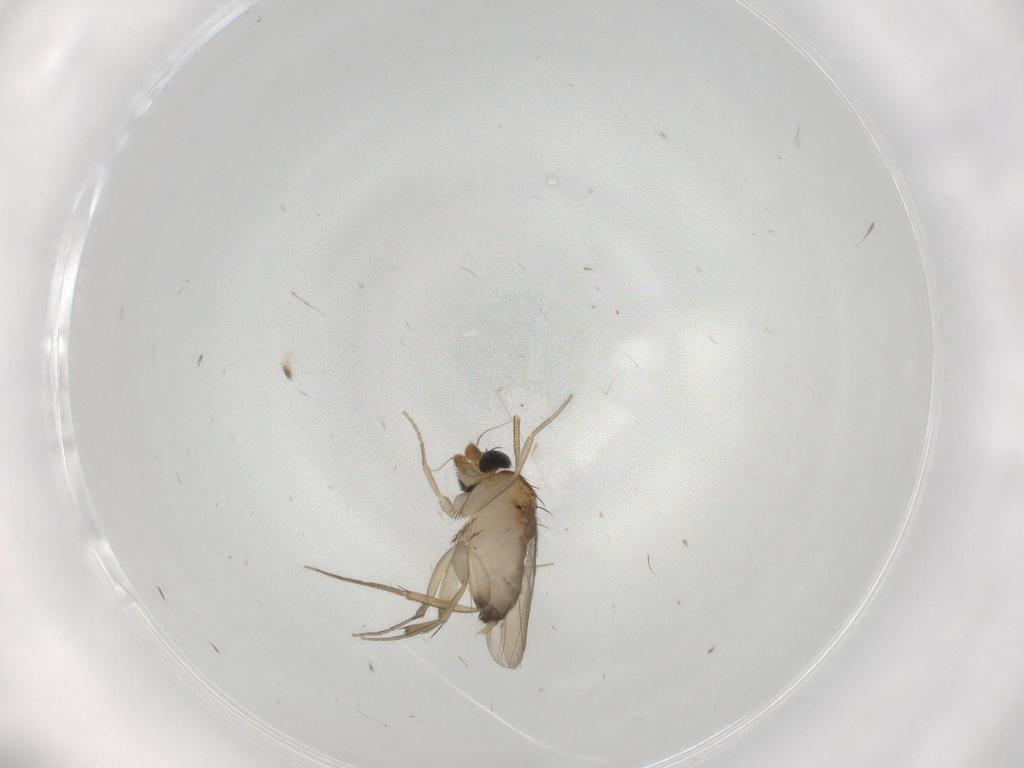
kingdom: Animalia
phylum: Arthropoda
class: Insecta
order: Diptera
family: Phoridae
